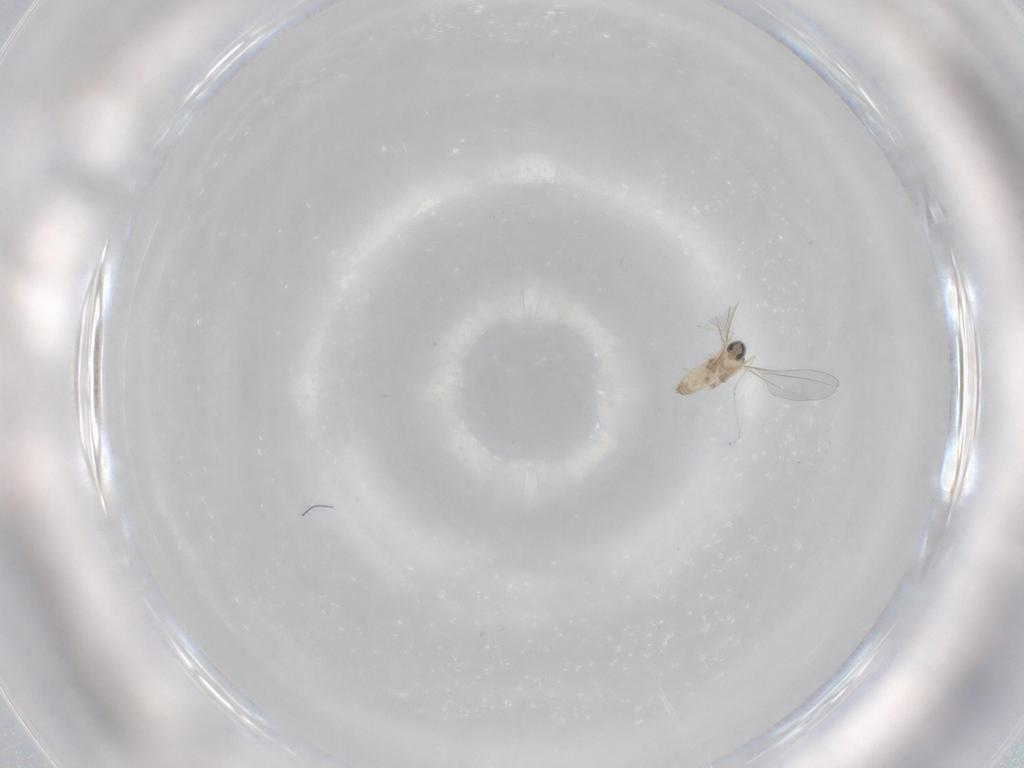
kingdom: Animalia
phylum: Arthropoda
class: Insecta
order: Diptera
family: Cecidomyiidae
